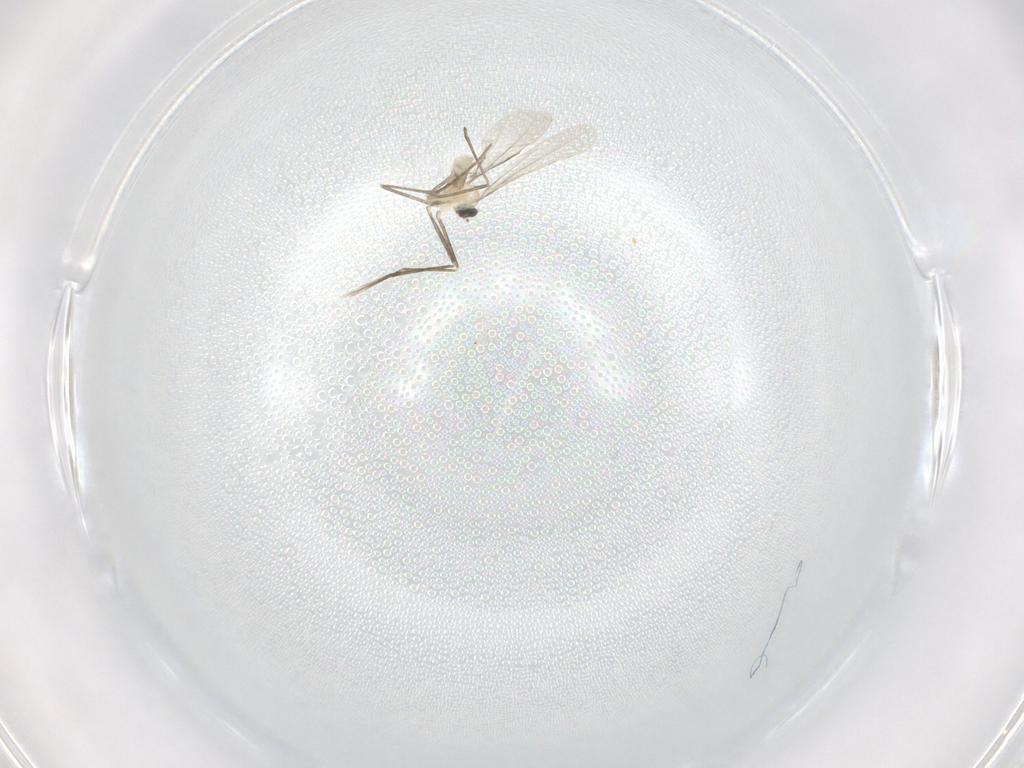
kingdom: Animalia
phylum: Arthropoda
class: Insecta
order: Diptera
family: Cecidomyiidae
